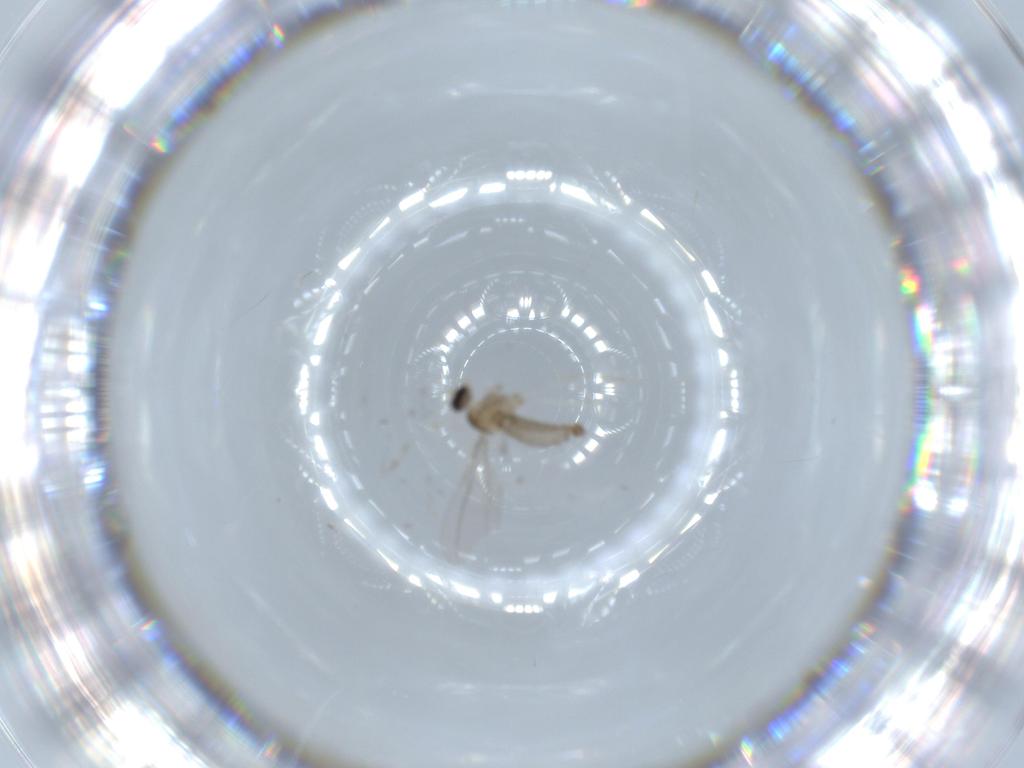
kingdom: Animalia
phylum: Arthropoda
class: Insecta
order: Diptera
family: Cecidomyiidae
